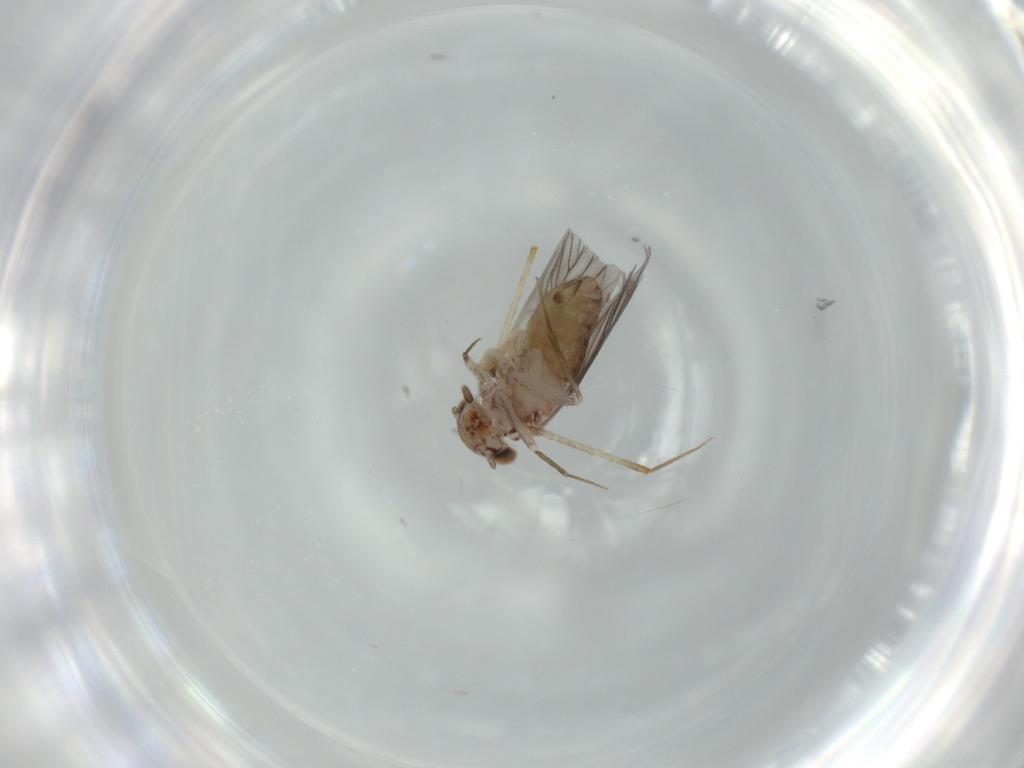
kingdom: Animalia
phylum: Arthropoda
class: Insecta
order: Psocodea
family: Lepidopsocidae
